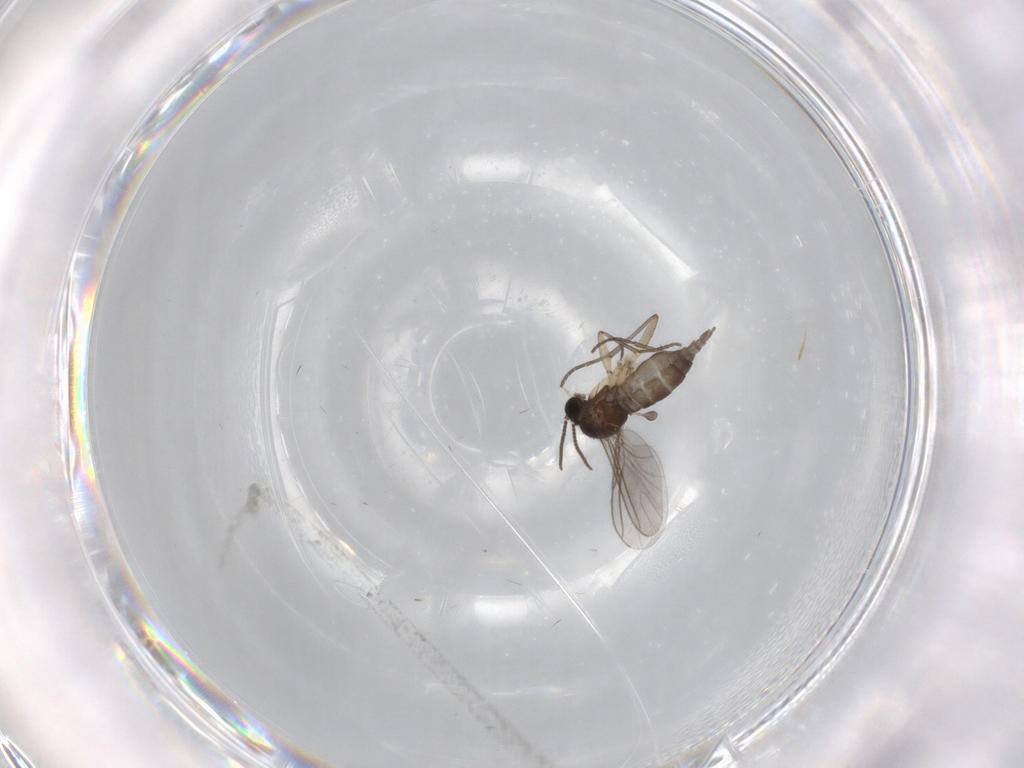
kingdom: Animalia
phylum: Arthropoda
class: Insecta
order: Diptera
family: Sciaridae
